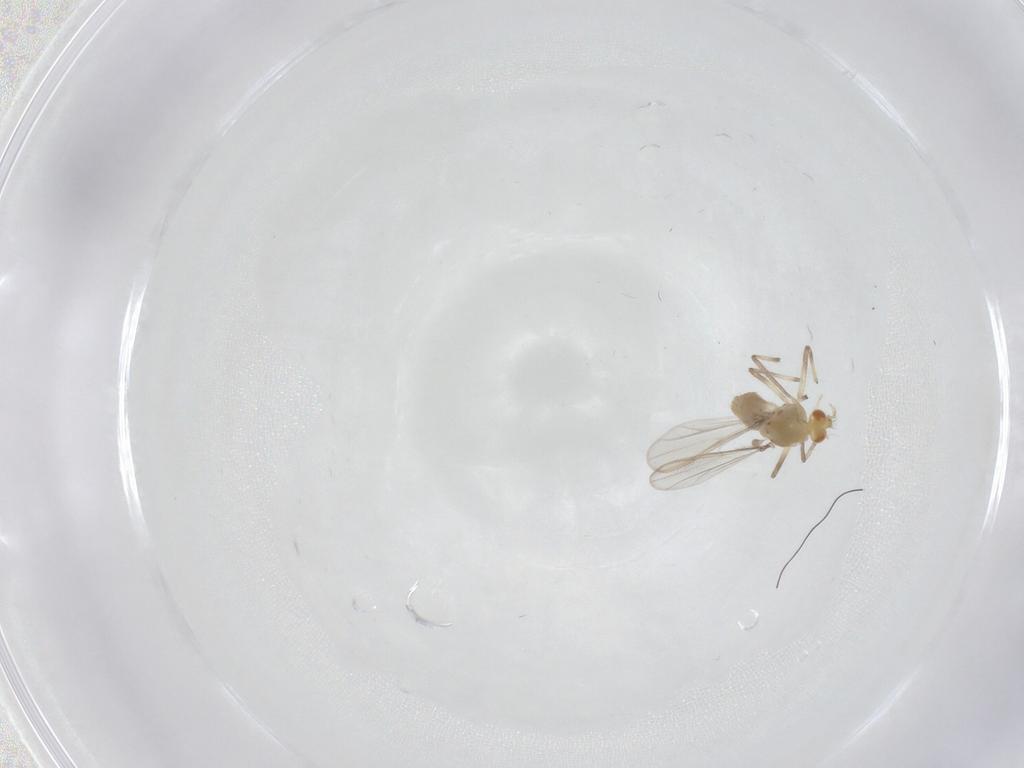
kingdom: Animalia
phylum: Arthropoda
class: Insecta
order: Diptera
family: Chironomidae
